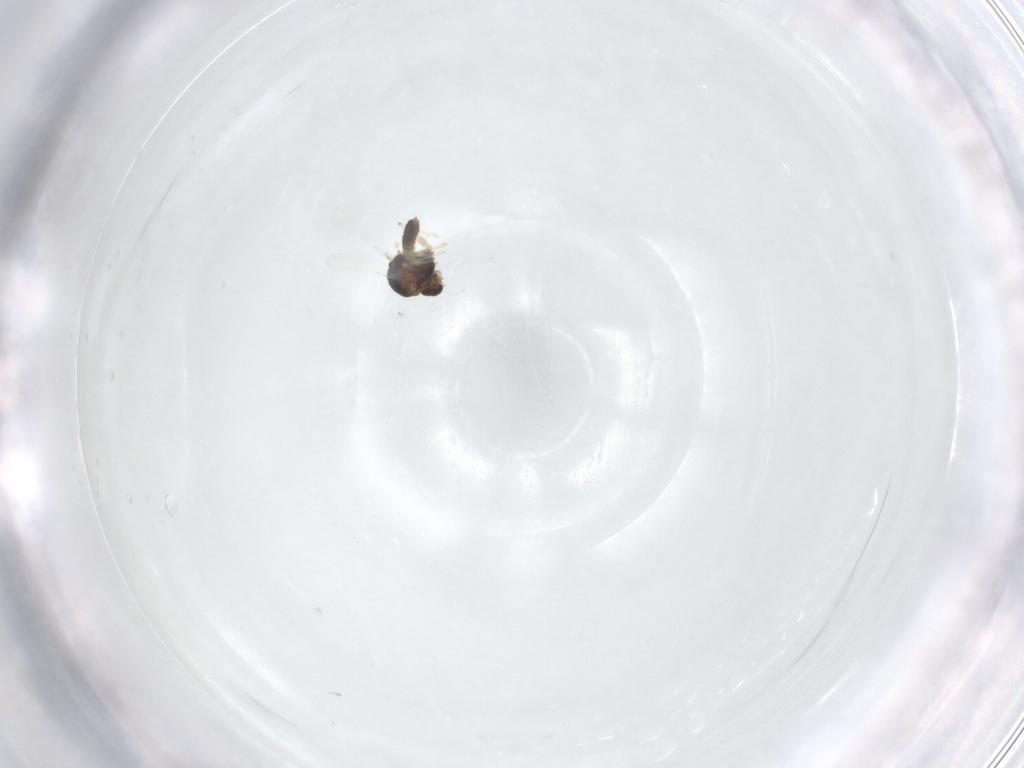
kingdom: Animalia
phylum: Arthropoda
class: Insecta
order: Diptera
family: Chironomidae
